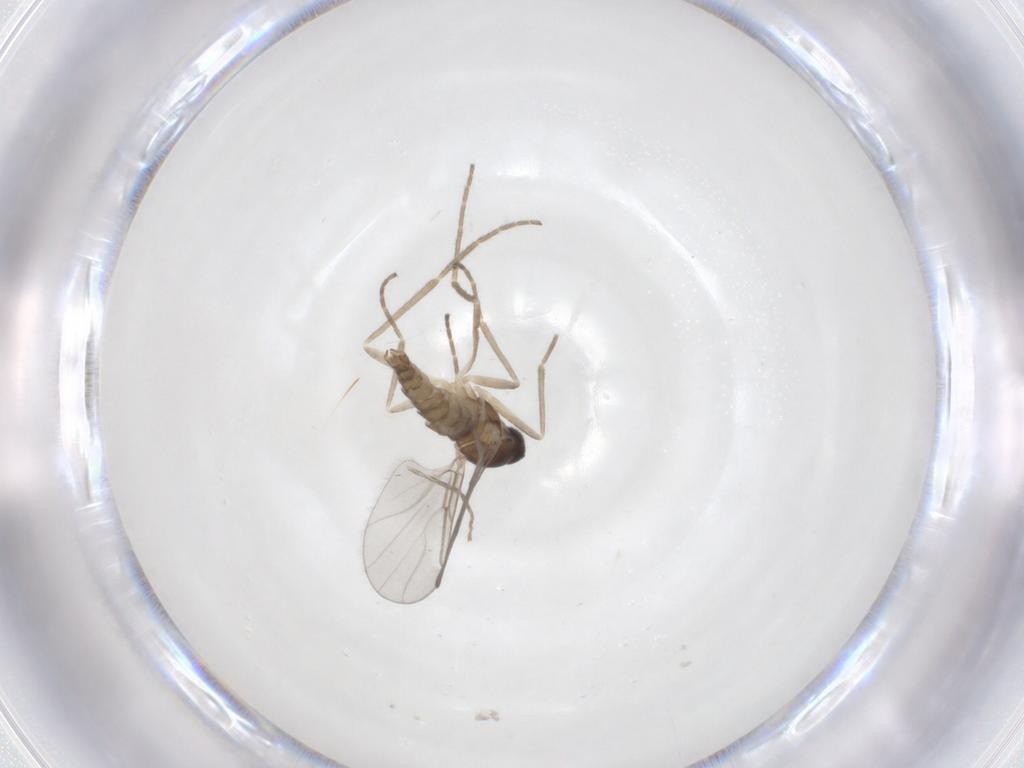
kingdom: Animalia
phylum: Arthropoda
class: Insecta
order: Diptera
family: Cecidomyiidae
